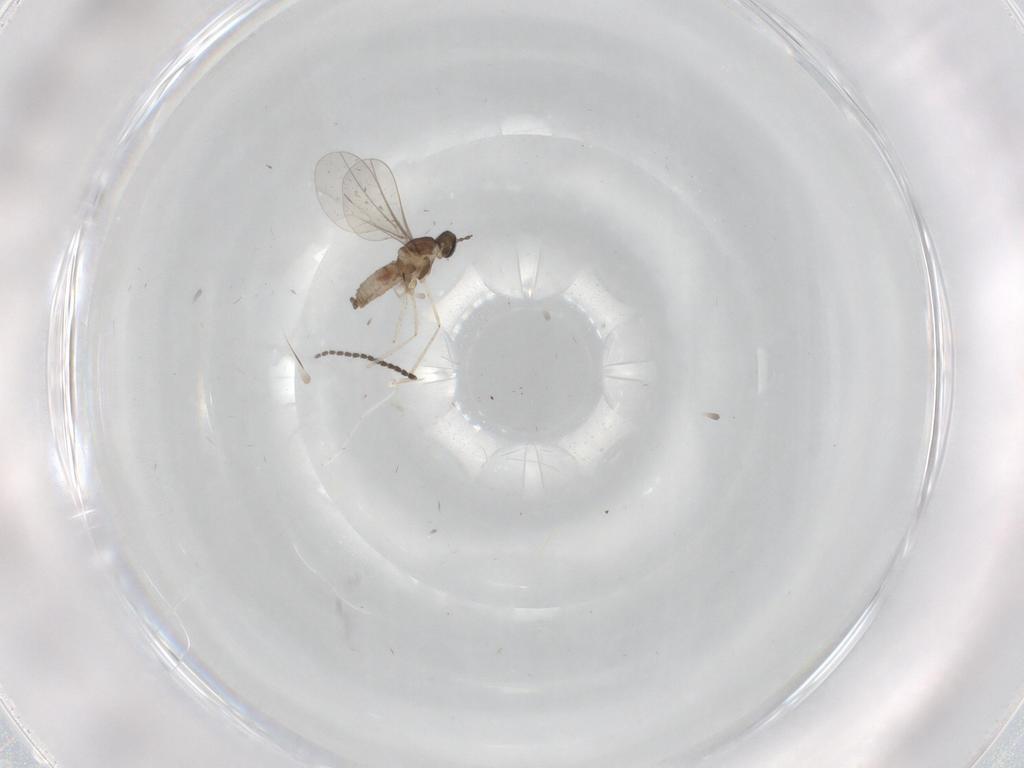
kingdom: Animalia
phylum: Arthropoda
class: Insecta
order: Diptera
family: Sciaridae
